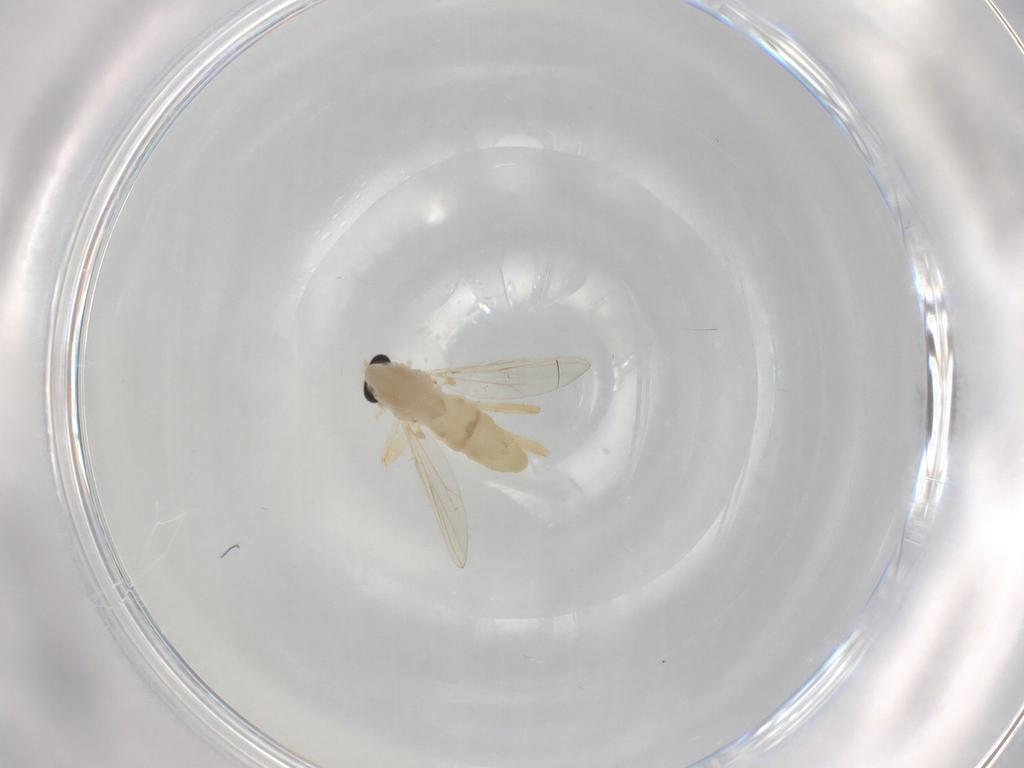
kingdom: Animalia
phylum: Arthropoda
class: Insecta
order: Diptera
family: Chironomidae
